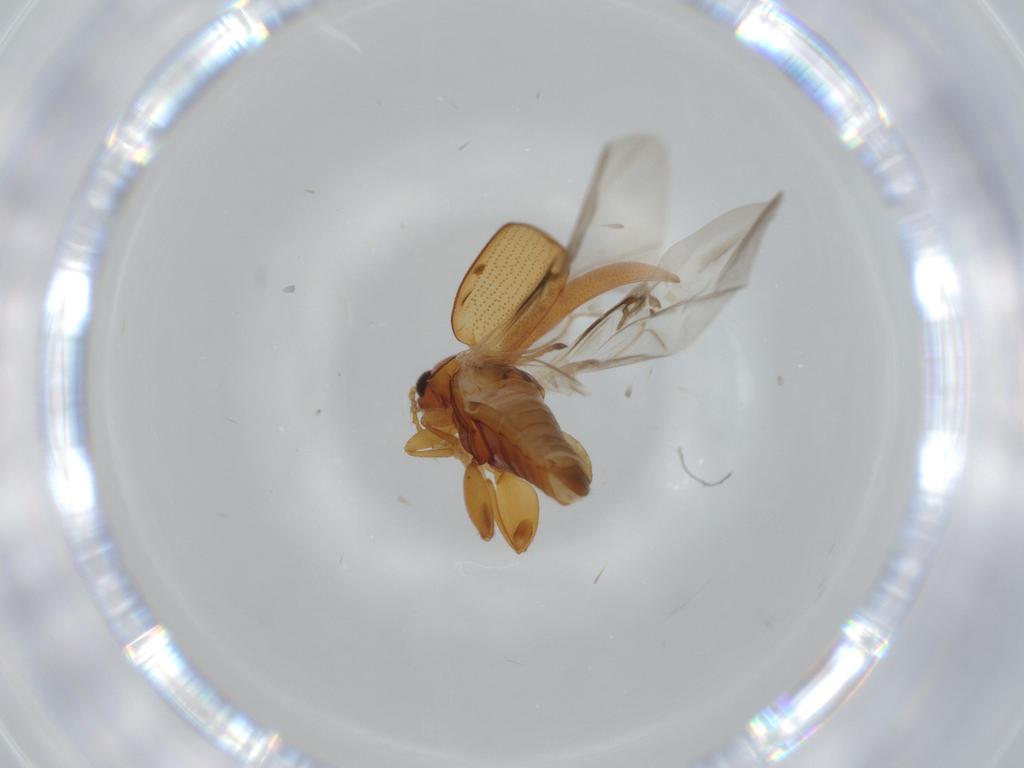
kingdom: Animalia
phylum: Arthropoda
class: Insecta
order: Coleoptera
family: Chrysomelidae
